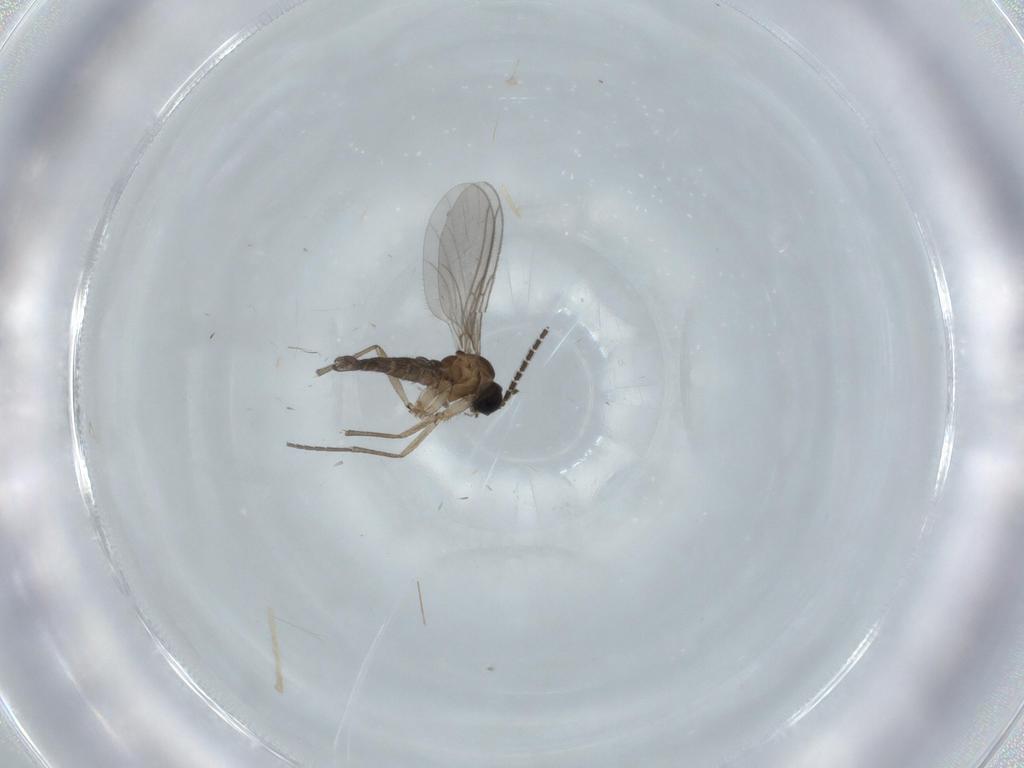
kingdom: Animalia
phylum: Arthropoda
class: Insecta
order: Diptera
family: Sciaridae
